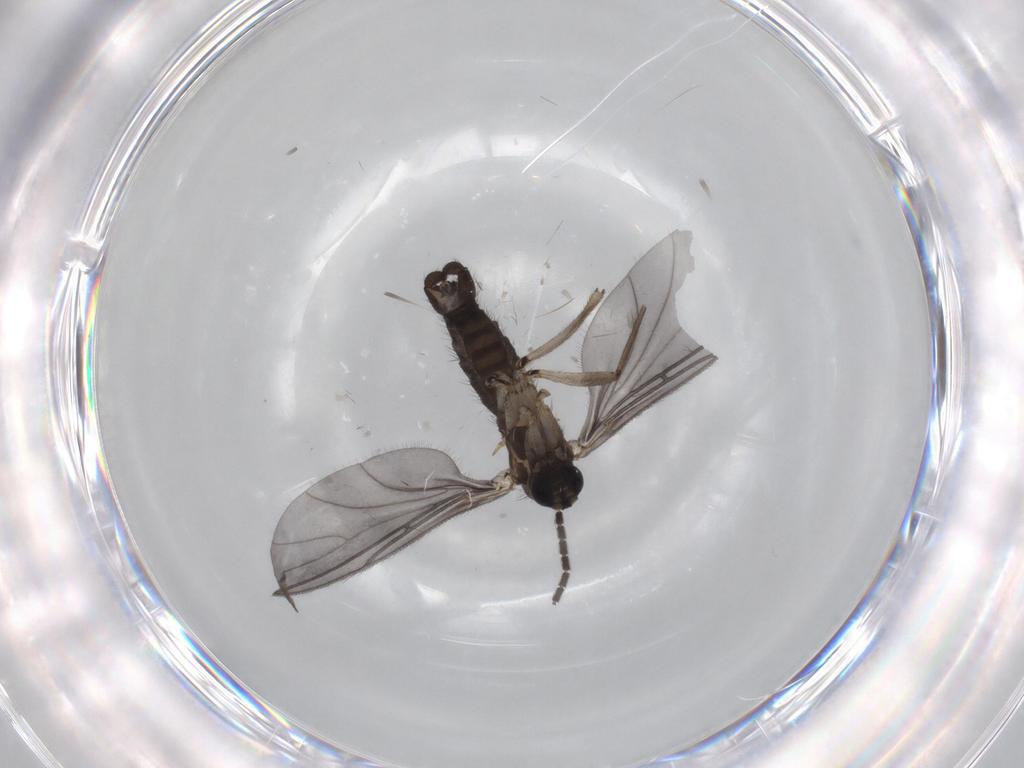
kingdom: Animalia
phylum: Arthropoda
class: Insecta
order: Diptera
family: Sciaridae
